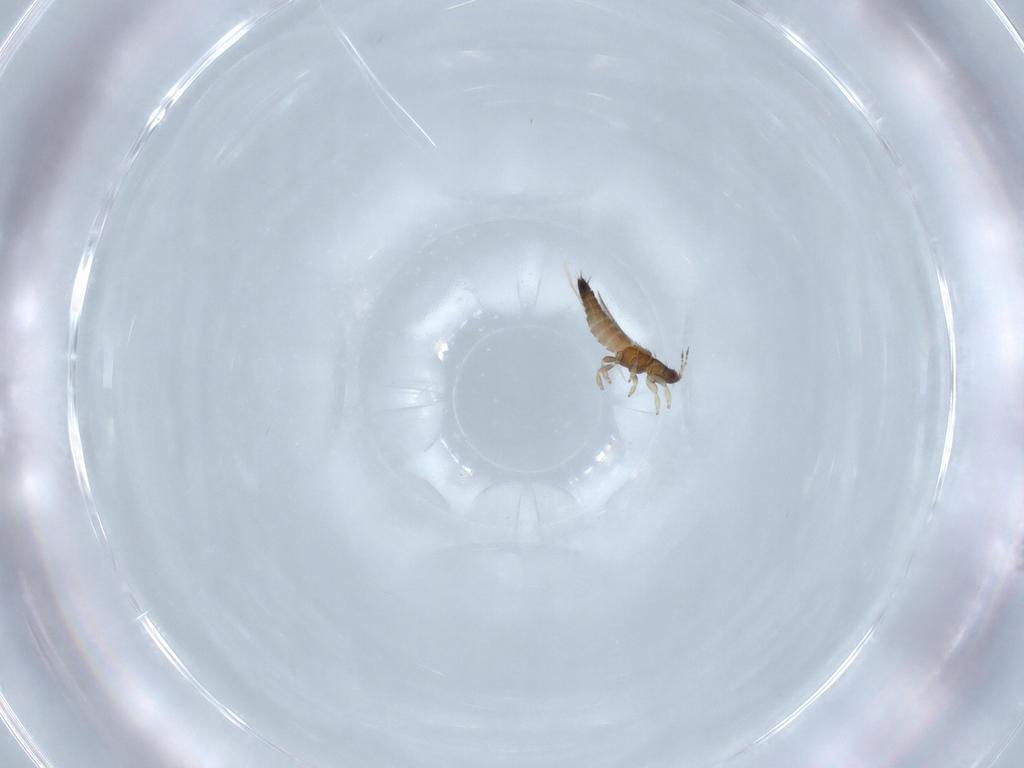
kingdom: Animalia
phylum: Arthropoda
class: Insecta
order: Thysanoptera
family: Thripidae
